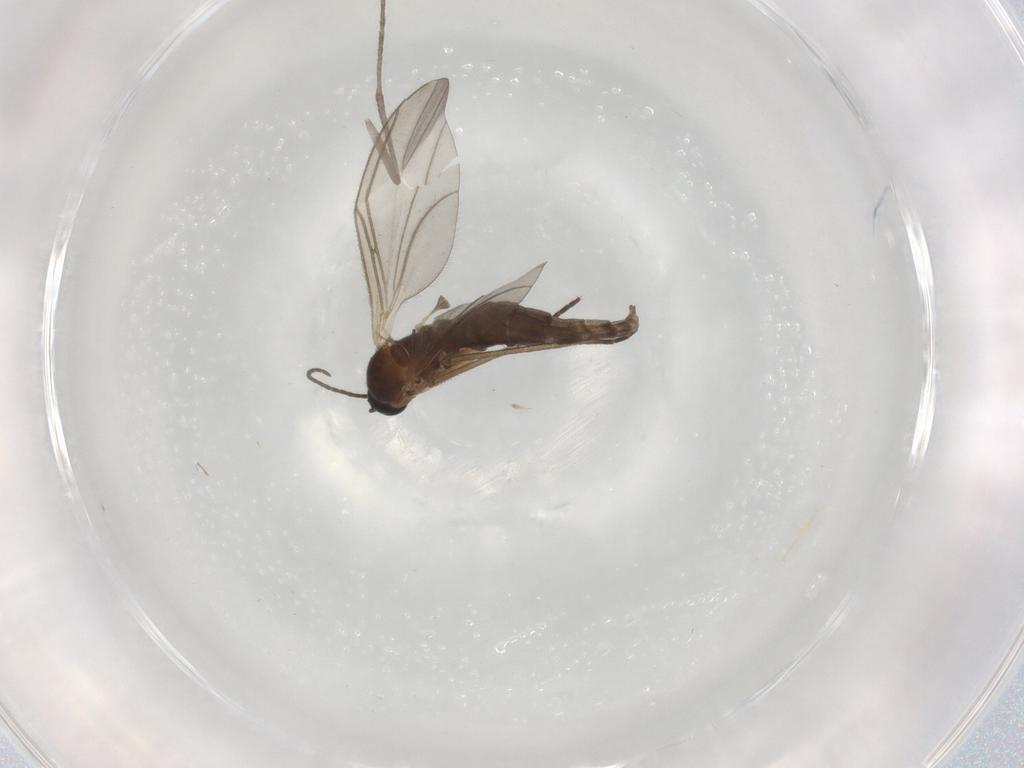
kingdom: Animalia
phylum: Arthropoda
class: Insecta
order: Diptera
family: Sciaridae
